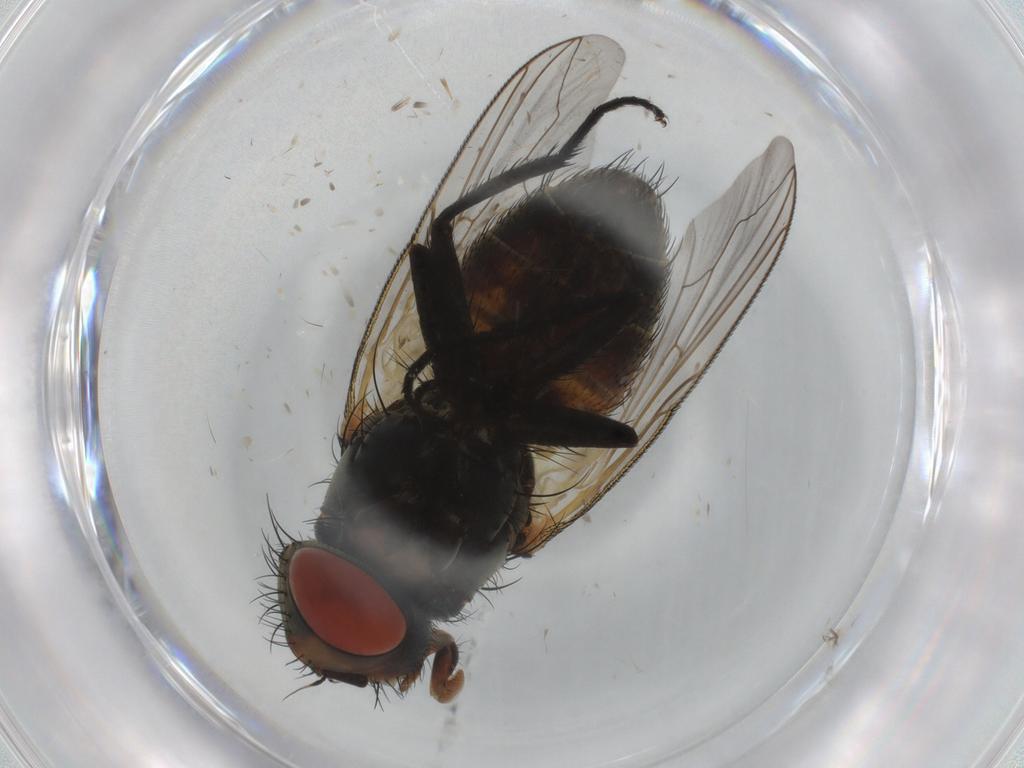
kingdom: Animalia
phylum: Arthropoda
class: Insecta
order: Diptera
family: Sarcophagidae
